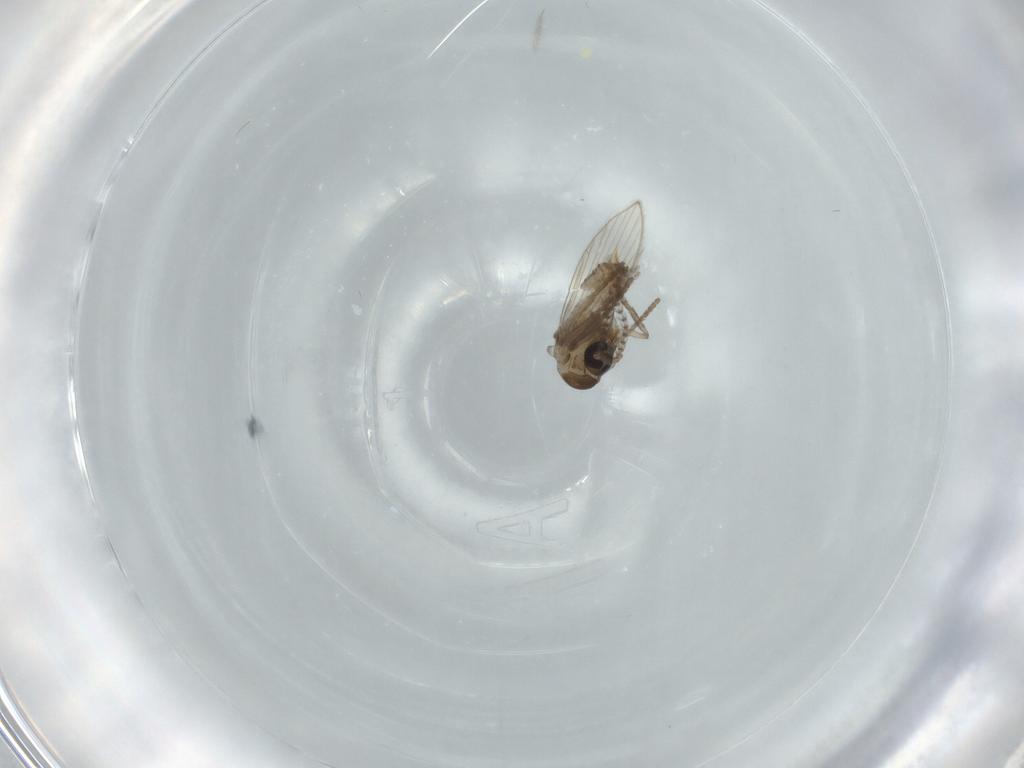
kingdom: Animalia
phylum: Arthropoda
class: Insecta
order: Diptera
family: Psychodidae
